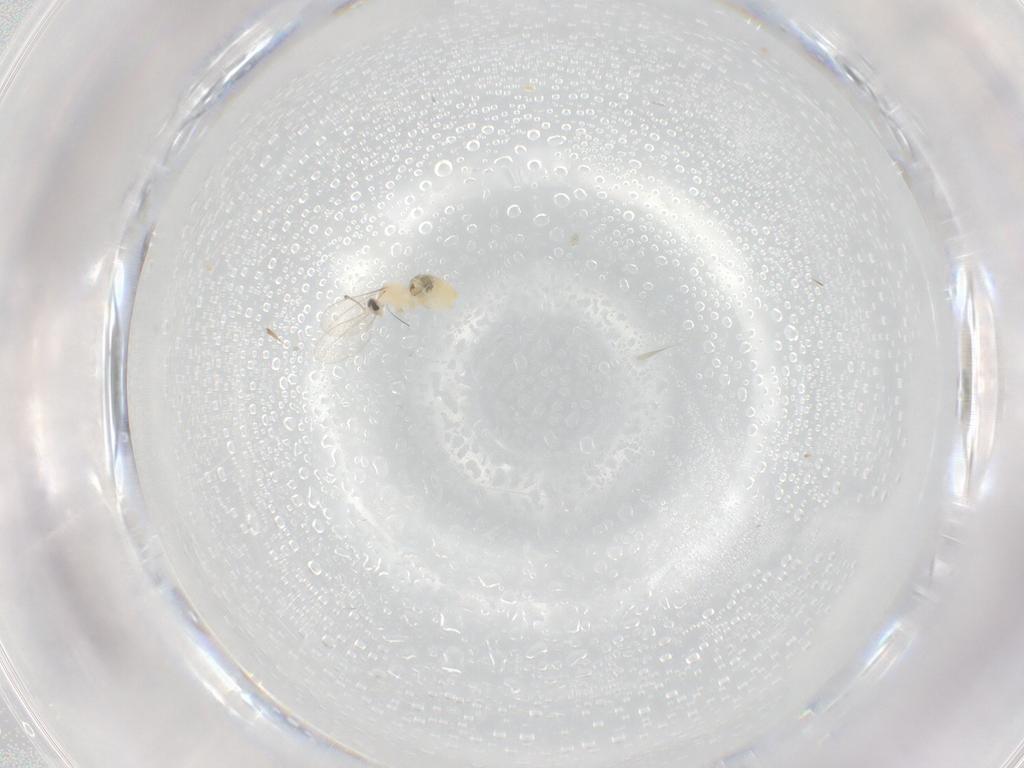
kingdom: Animalia
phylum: Arthropoda
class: Insecta
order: Diptera
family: Cecidomyiidae
